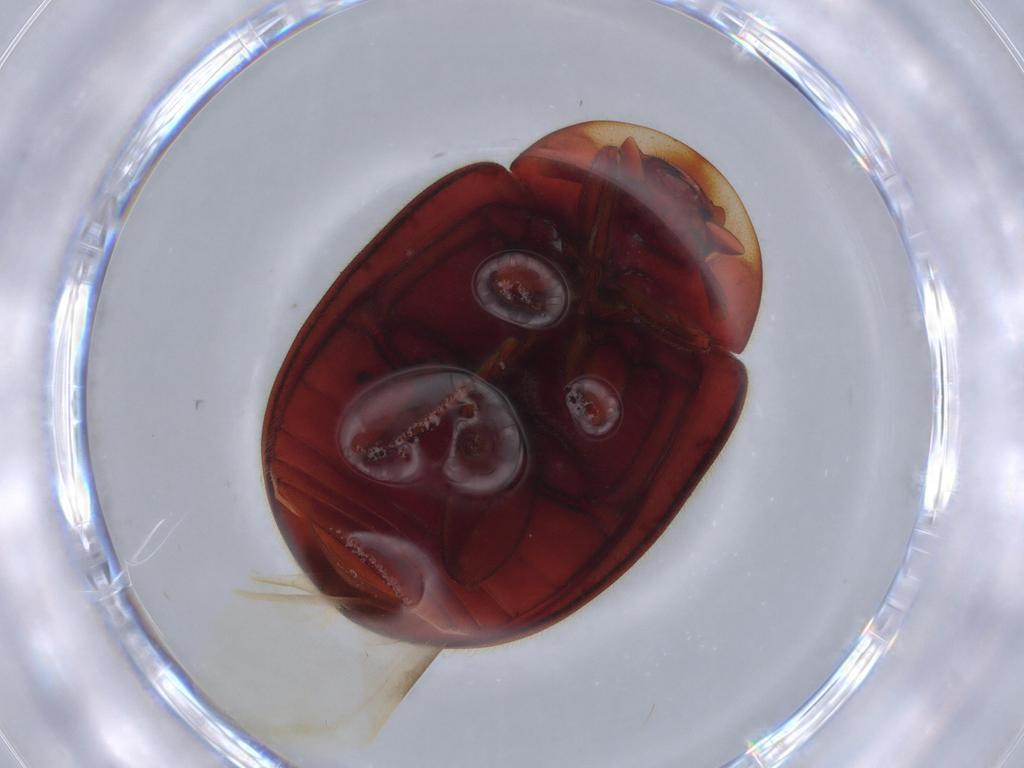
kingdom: Animalia
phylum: Arthropoda
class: Insecta
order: Coleoptera
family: Coccinellidae
